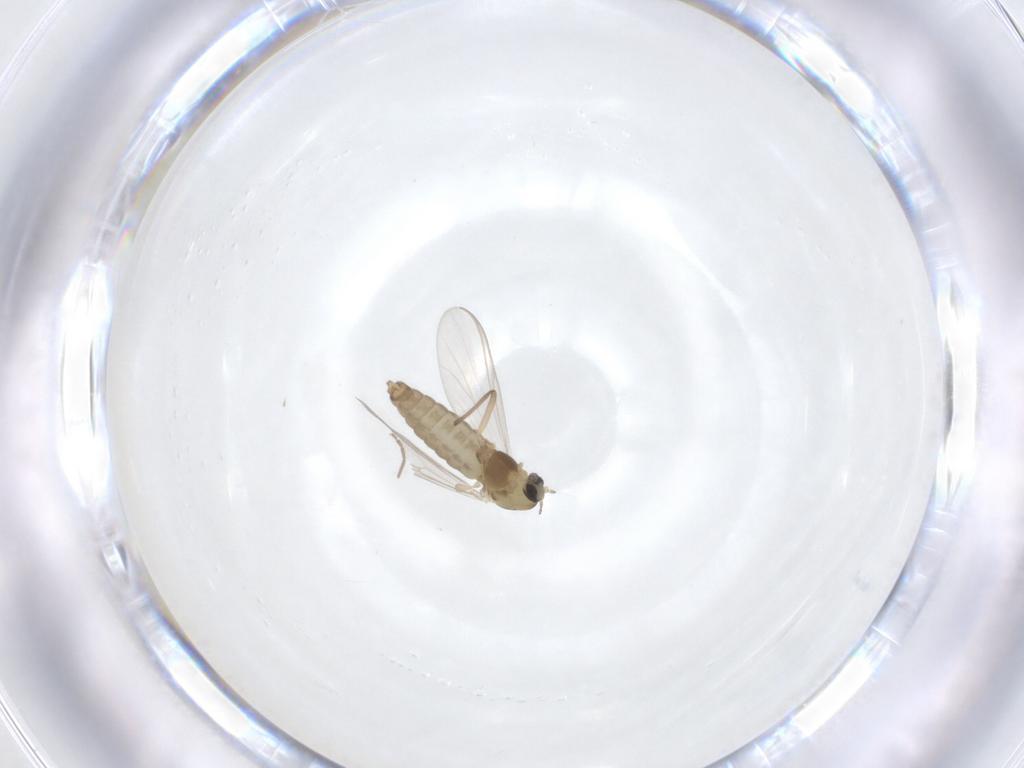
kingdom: Animalia
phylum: Arthropoda
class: Insecta
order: Diptera
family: Chironomidae
